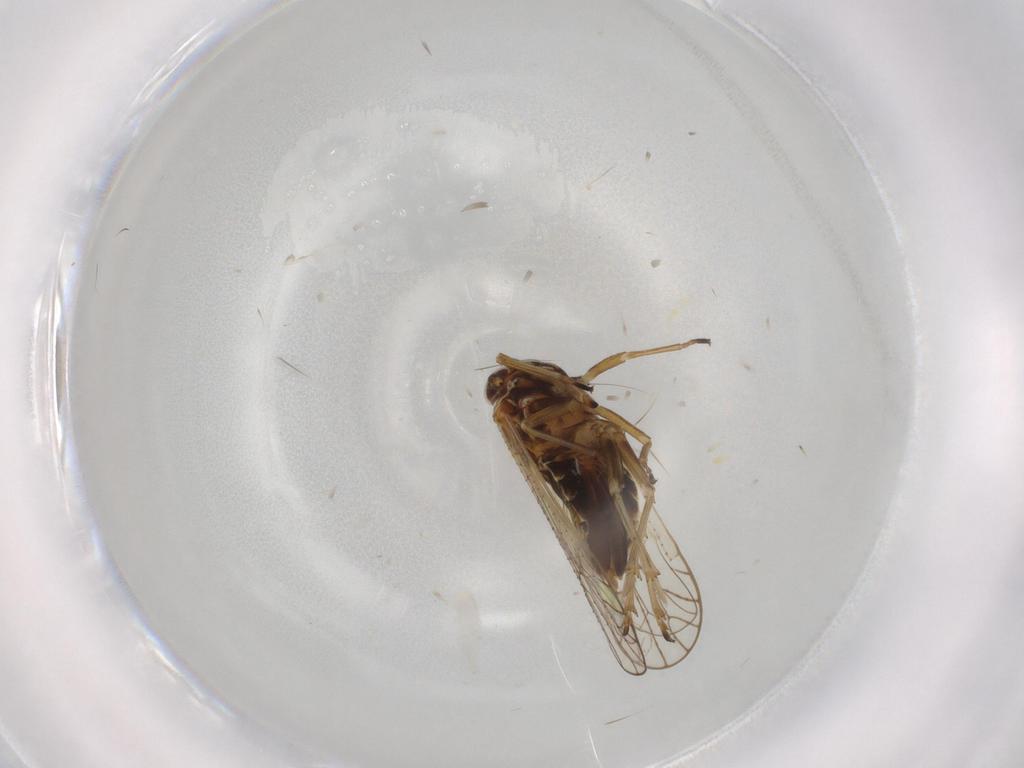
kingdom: Animalia
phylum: Arthropoda
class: Insecta
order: Hemiptera
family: Delphacidae
